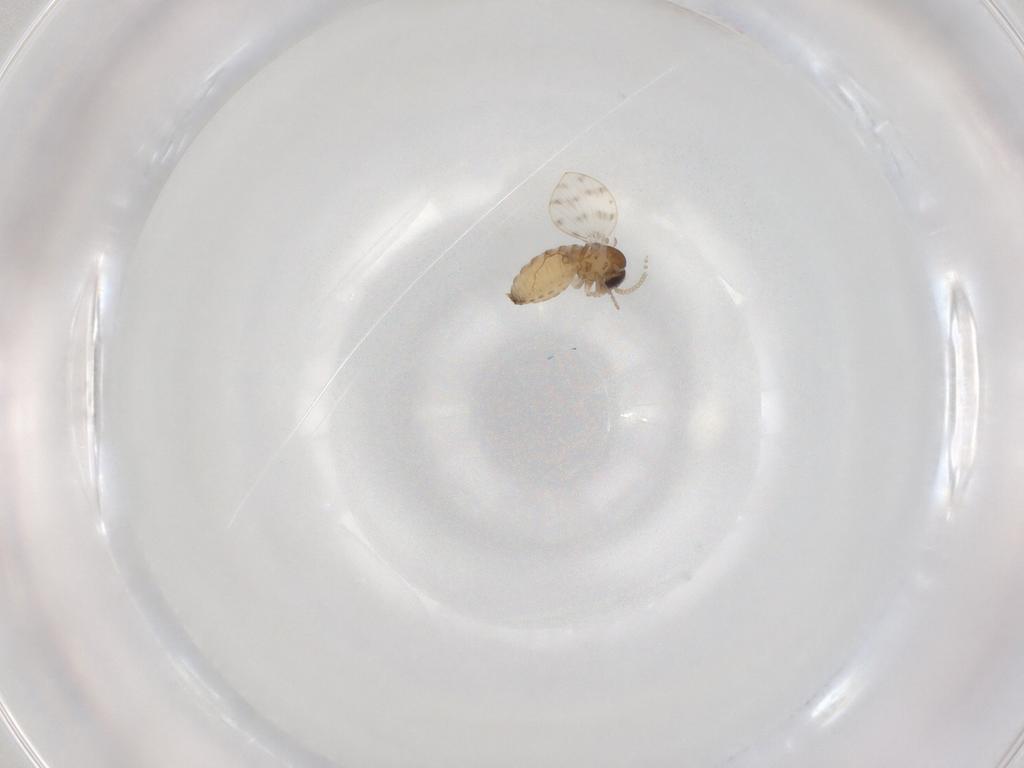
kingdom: Animalia
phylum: Arthropoda
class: Insecta
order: Diptera
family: Psychodidae
